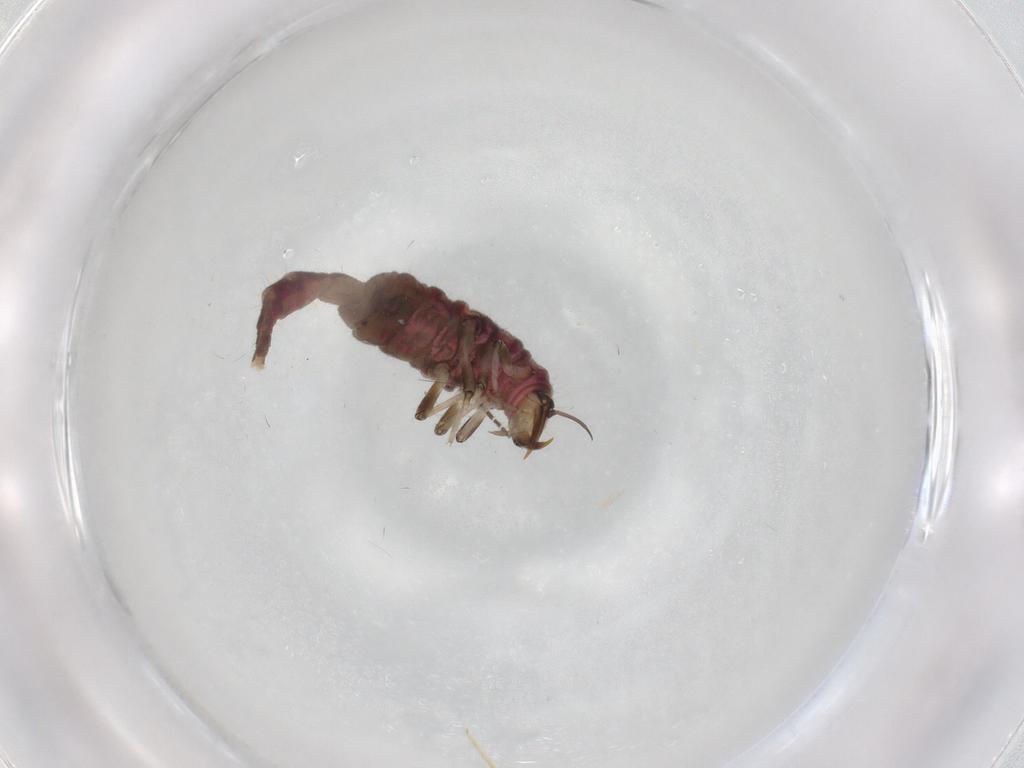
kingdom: Animalia
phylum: Arthropoda
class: Insecta
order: Neuroptera
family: Hemerobiidae
